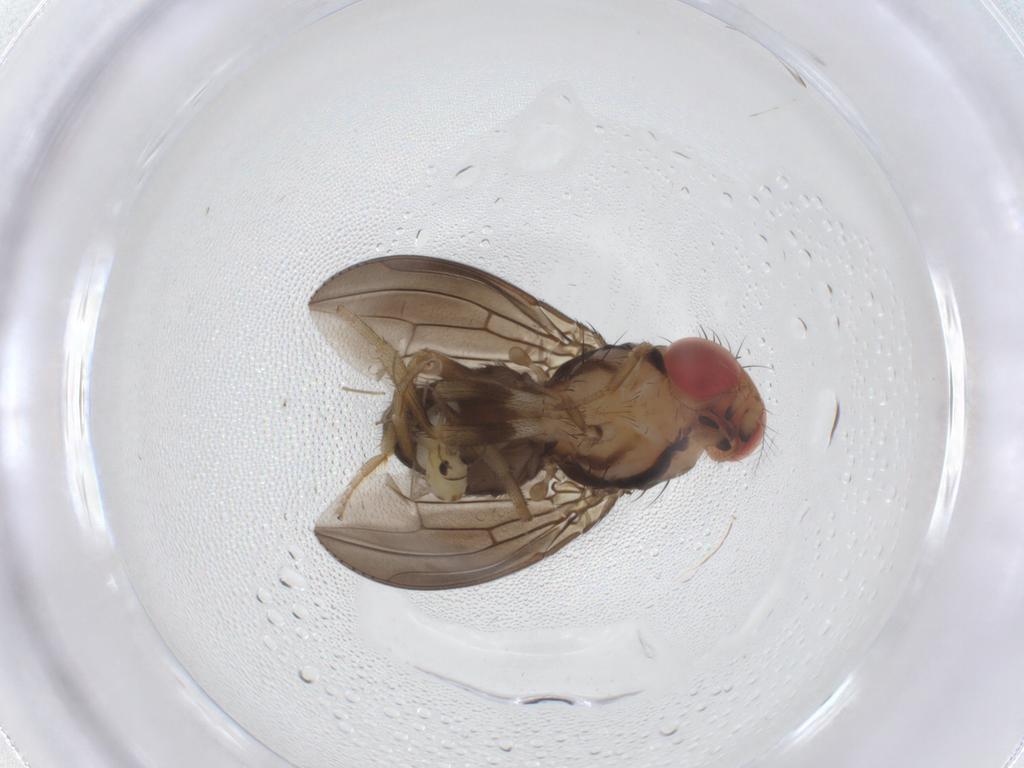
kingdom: Animalia
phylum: Arthropoda
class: Insecta
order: Diptera
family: Chironomidae
